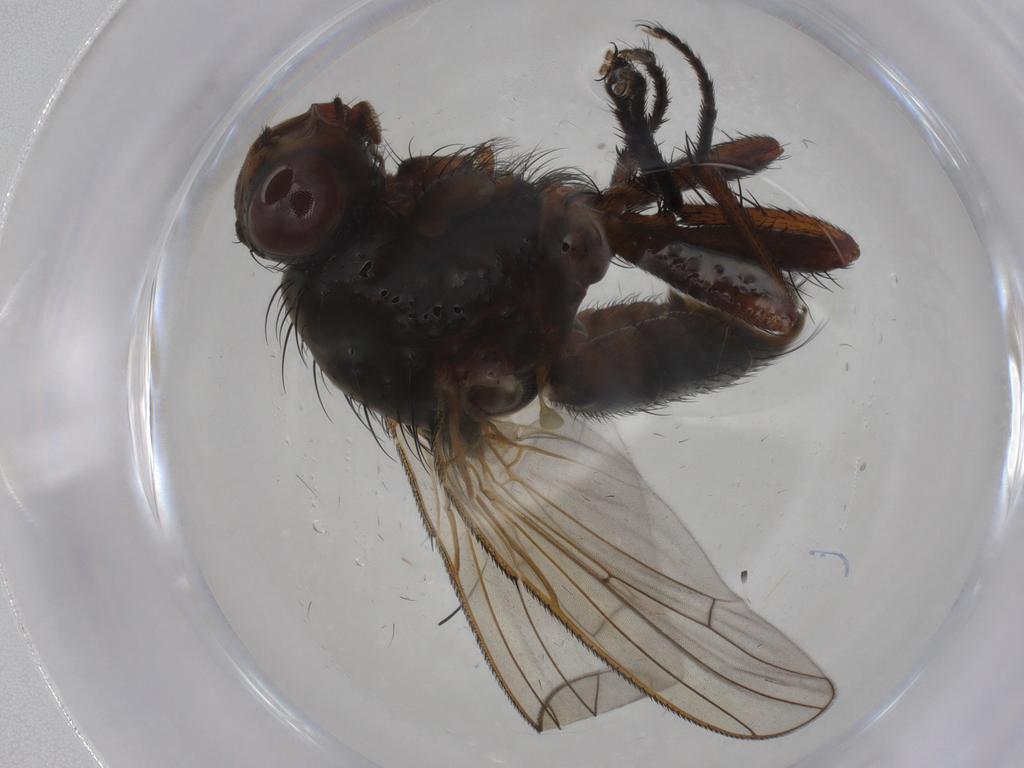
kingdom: Animalia
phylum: Arthropoda
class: Insecta
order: Diptera
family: Anthomyiidae
